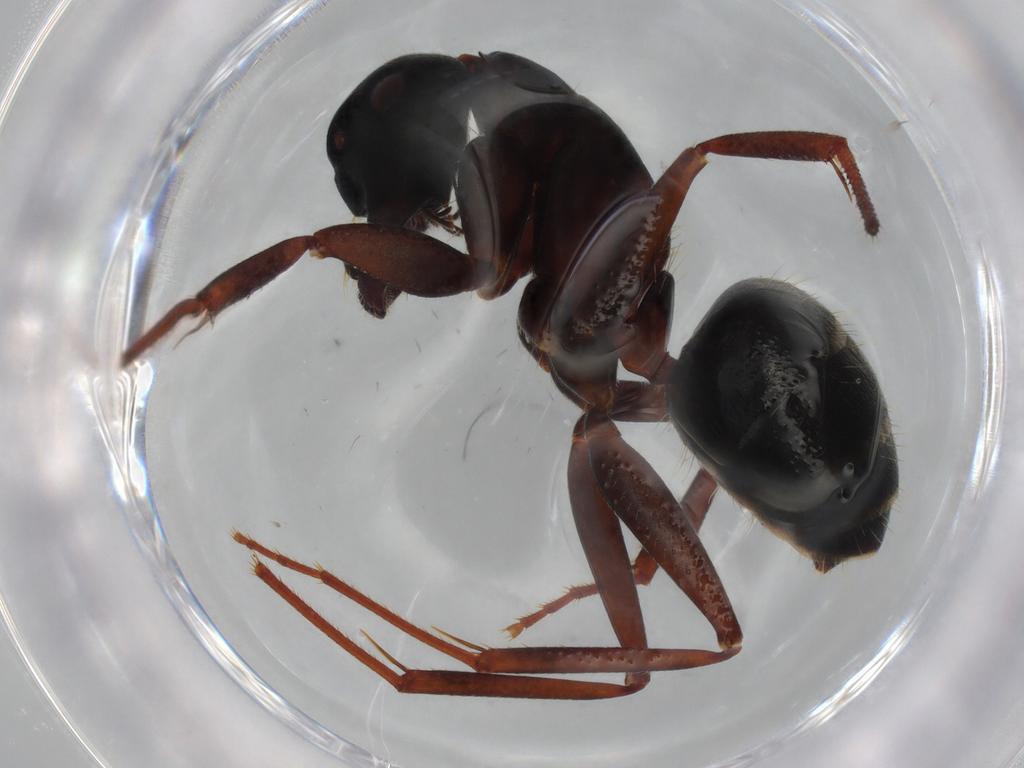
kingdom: Animalia
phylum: Arthropoda
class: Insecta
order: Hymenoptera
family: Formicidae
